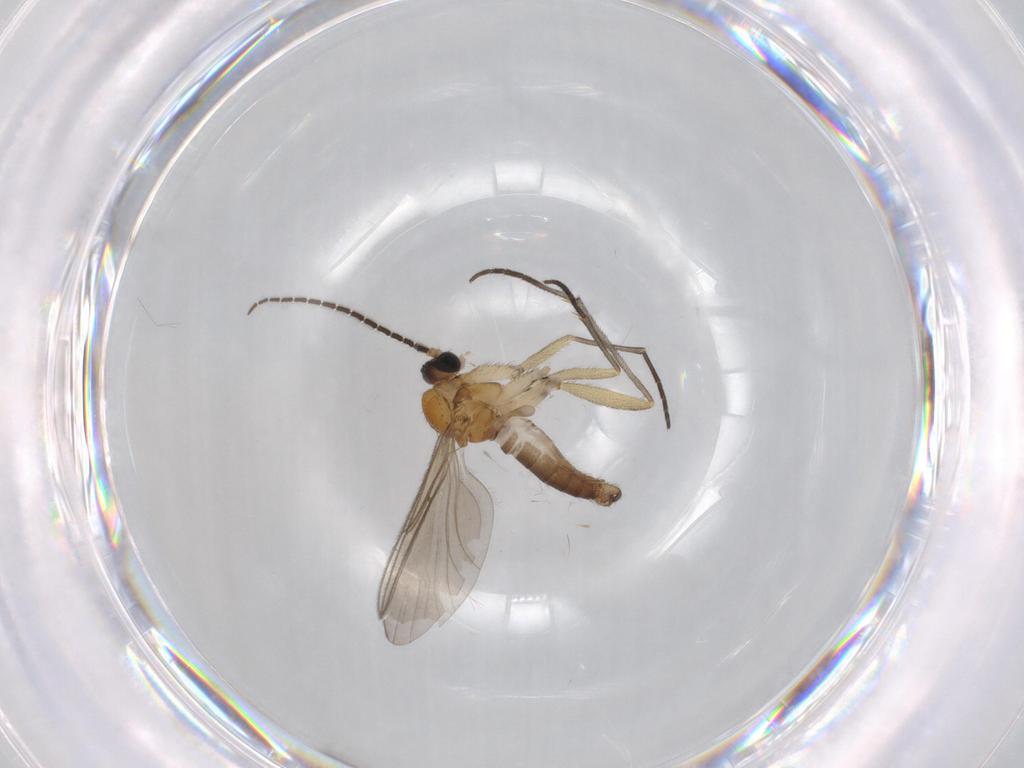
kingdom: Animalia
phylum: Arthropoda
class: Insecta
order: Diptera
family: Sciaridae
